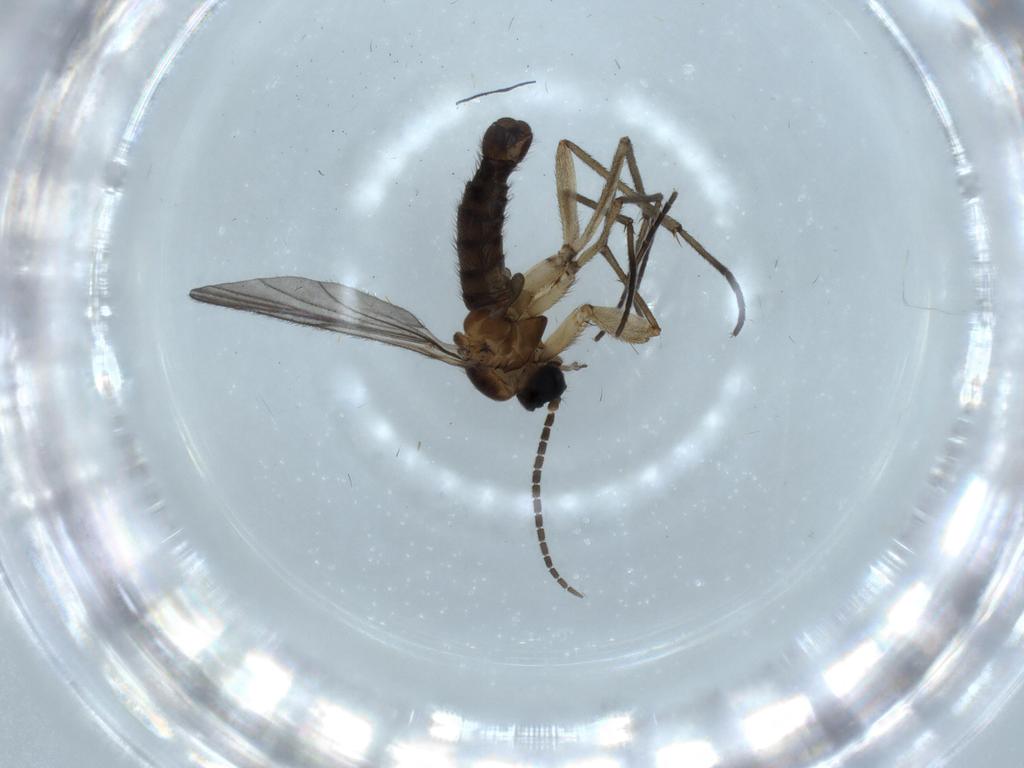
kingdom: Animalia
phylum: Arthropoda
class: Insecta
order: Diptera
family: Sciaridae
